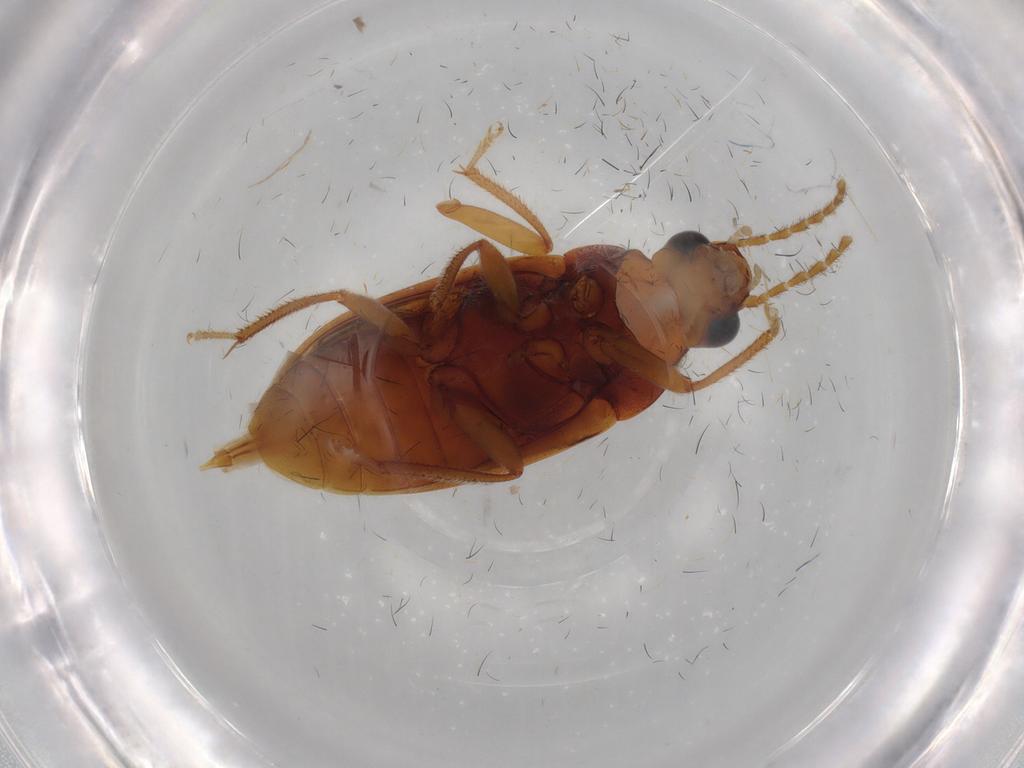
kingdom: Animalia
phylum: Arthropoda
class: Insecta
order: Coleoptera
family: Ptilodactylidae
